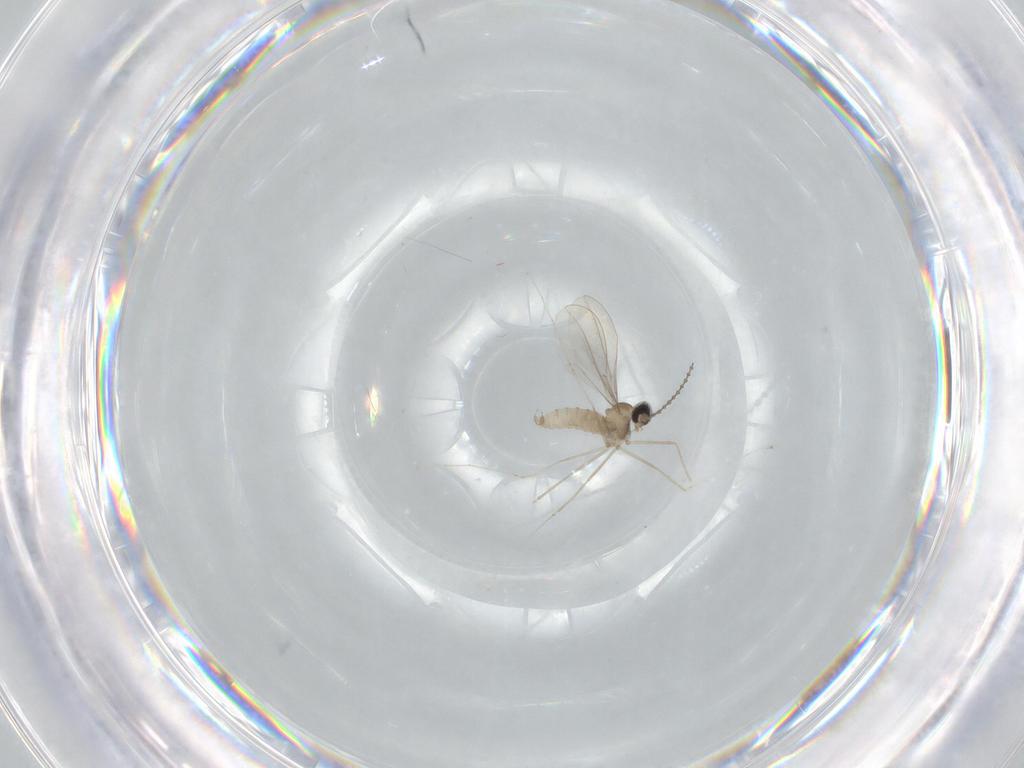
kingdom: Animalia
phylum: Arthropoda
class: Insecta
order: Diptera
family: Cecidomyiidae
